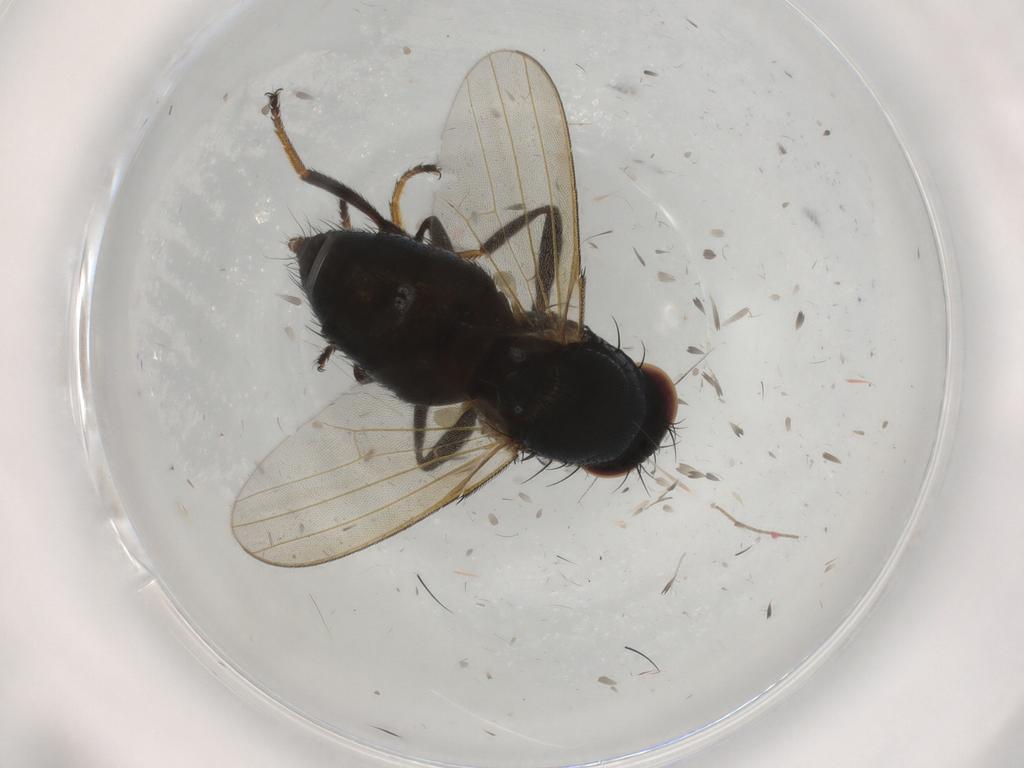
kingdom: Animalia
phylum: Arthropoda
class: Insecta
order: Diptera
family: Milichiidae
